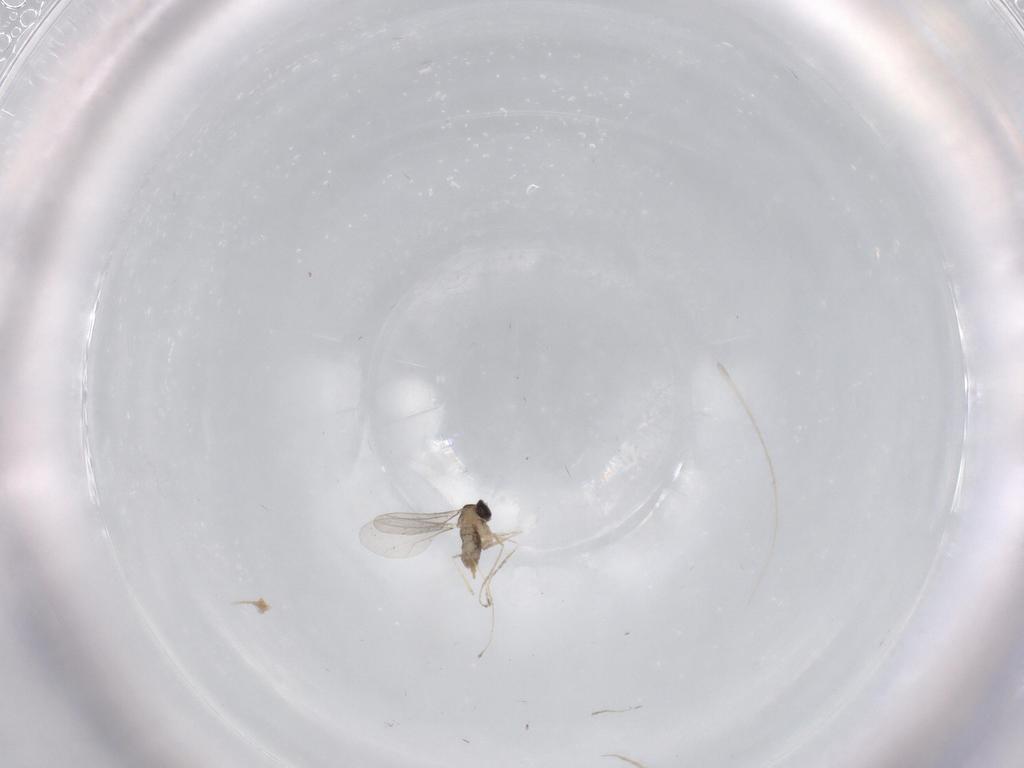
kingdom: Animalia
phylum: Arthropoda
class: Insecta
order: Diptera
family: Cecidomyiidae
